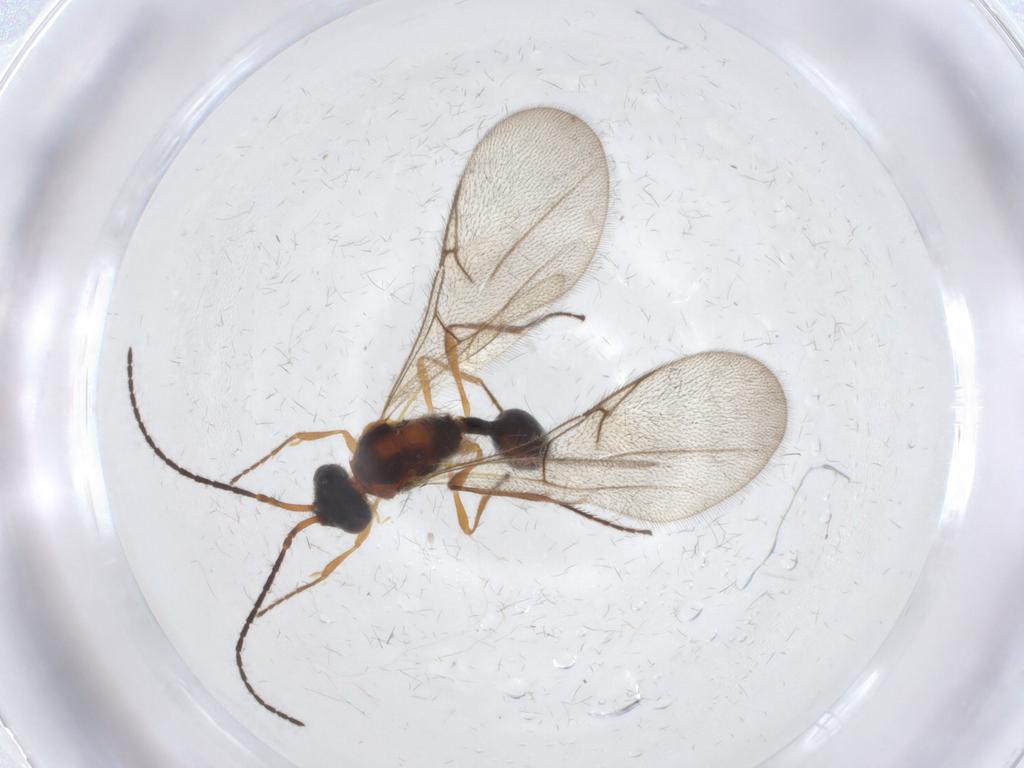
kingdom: Animalia
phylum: Arthropoda
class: Insecta
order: Hymenoptera
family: Diapriidae
